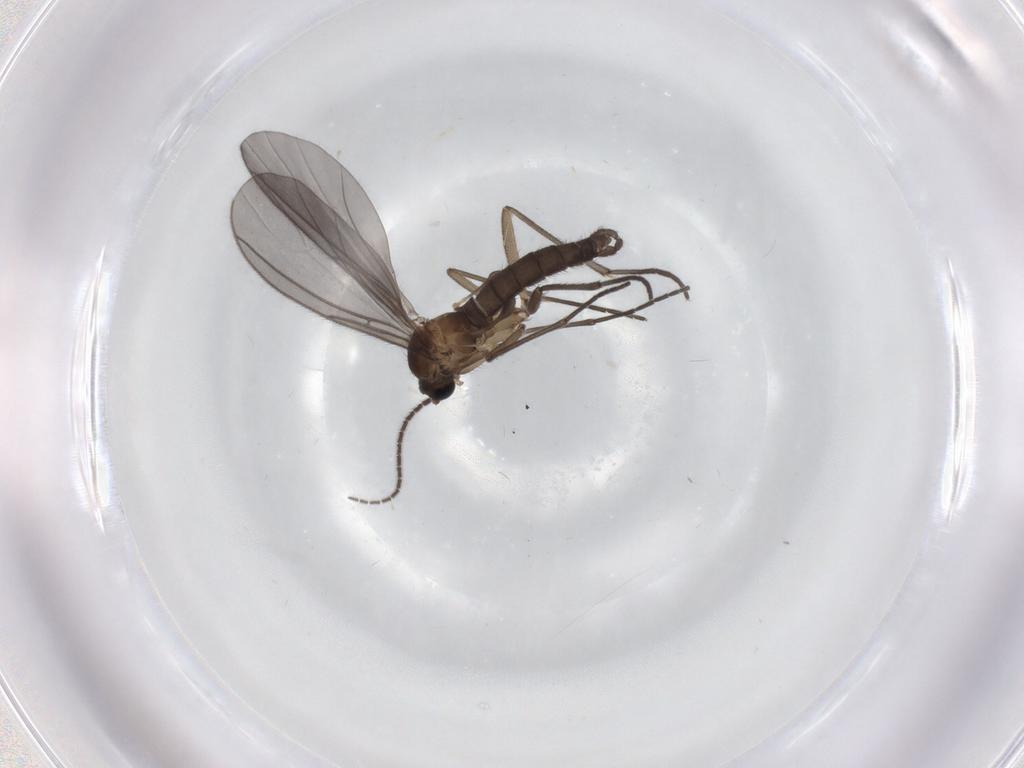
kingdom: Animalia
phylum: Arthropoda
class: Insecta
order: Diptera
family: Sciaridae
